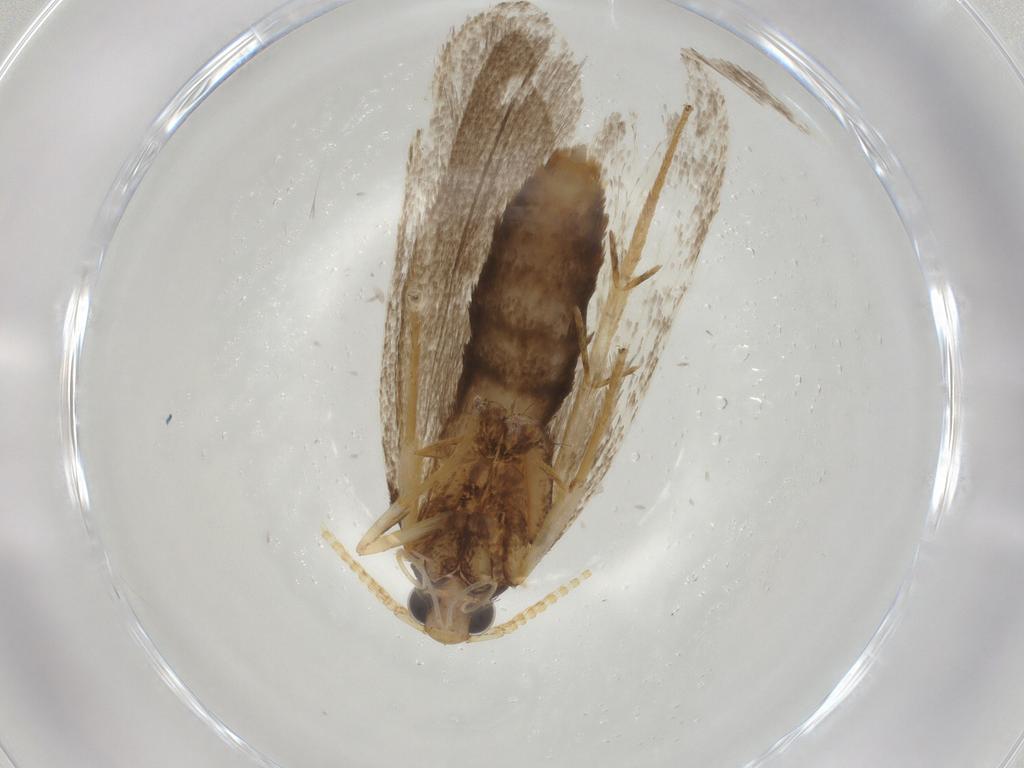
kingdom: Animalia
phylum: Arthropoda
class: Insecta
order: Lepidoptera
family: Lecithoceridae
